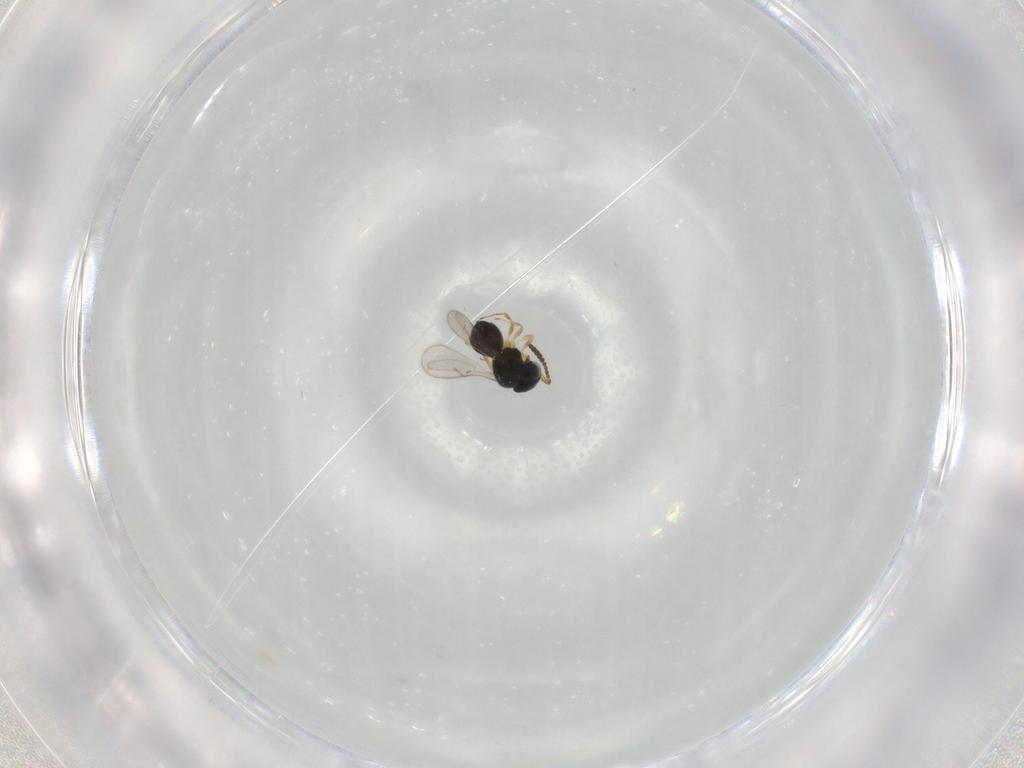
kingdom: Animalia
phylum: Arthropoda
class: Insecta
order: Hymenoptera
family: Scelionidae
